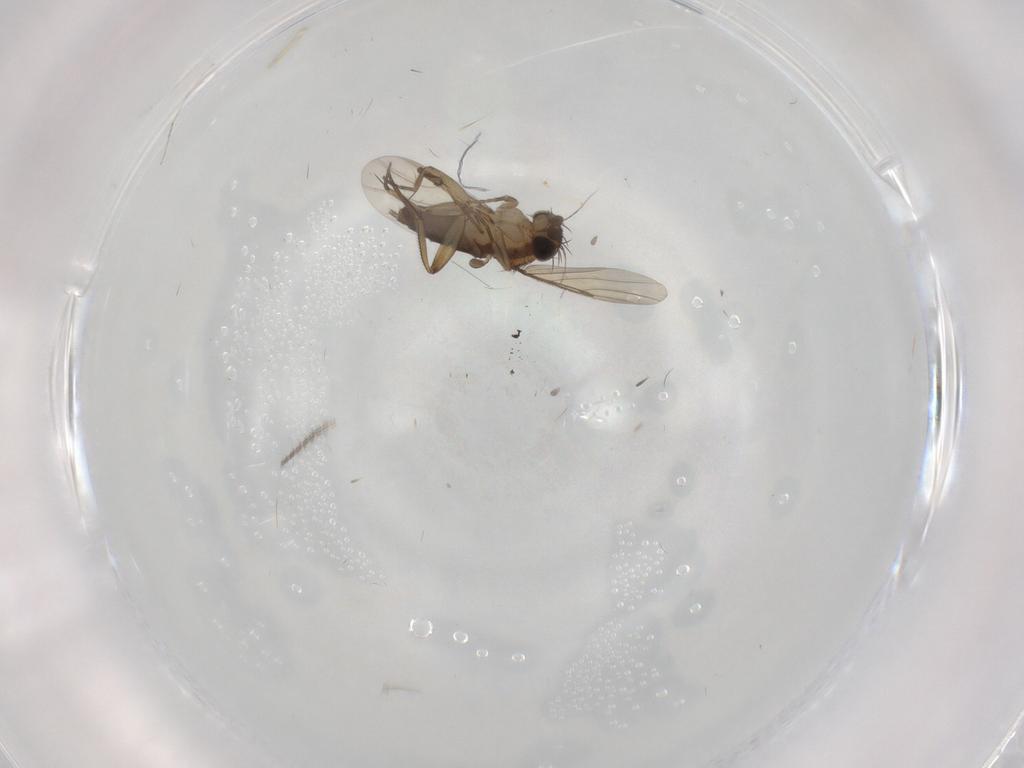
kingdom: Animalia
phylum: Arthropoda
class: Insecta
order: Diptera
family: Phoridae
